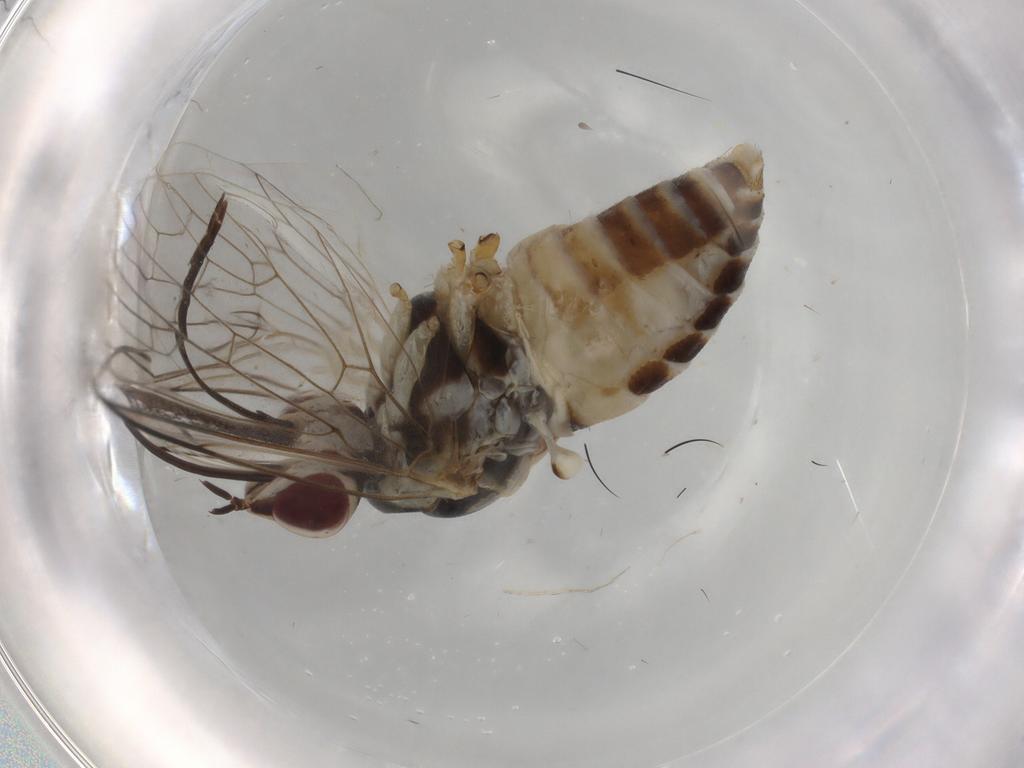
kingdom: Animalia
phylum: Arthropoda
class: Insecta
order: Diptera
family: Bombyliidae
